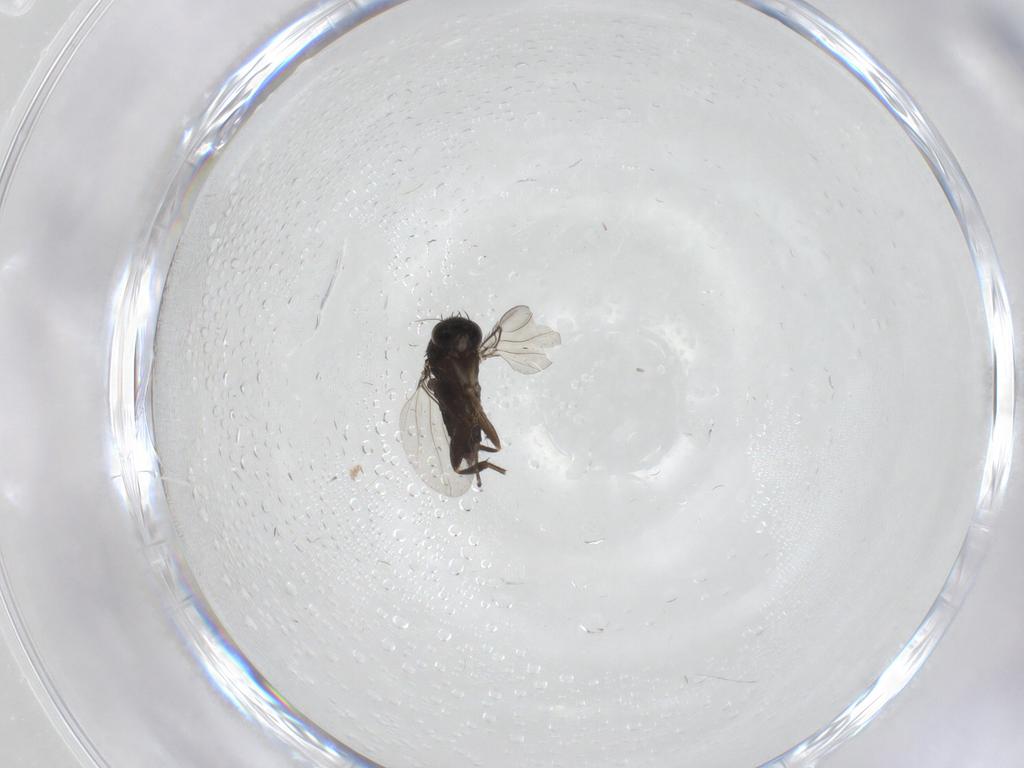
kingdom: Animalia
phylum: Arthropoda
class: Insecta
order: Diptera
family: Phoridae
